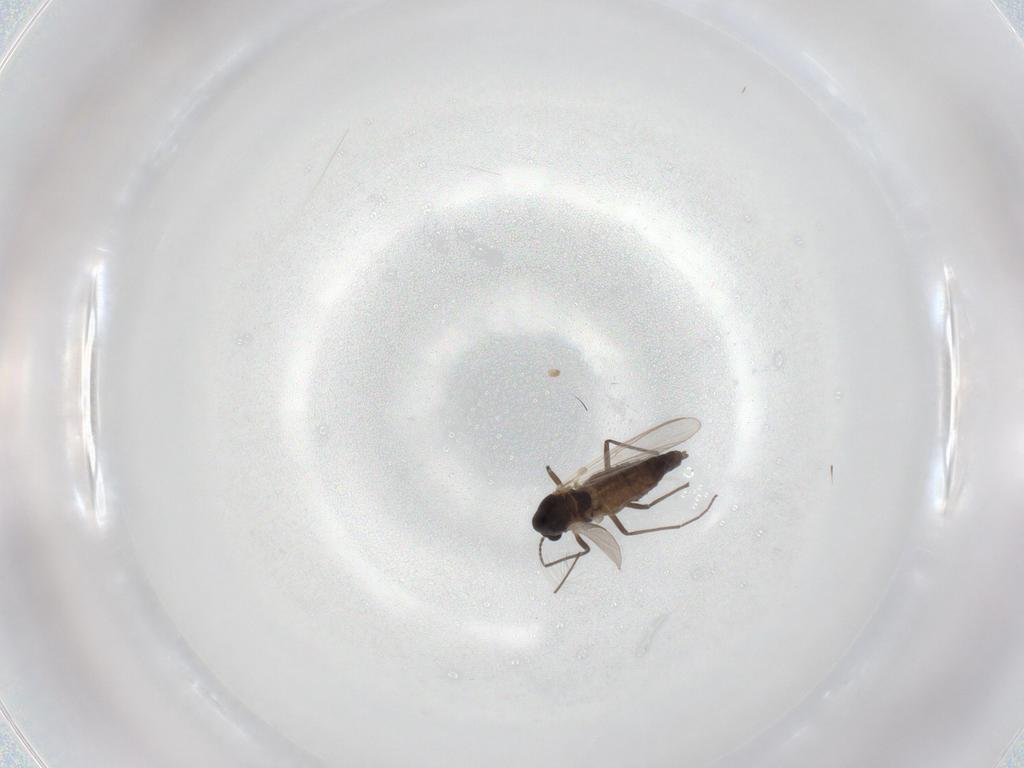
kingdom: Animalia
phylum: Arthropoda
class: Insecta
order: Diptera
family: Chironomidae
